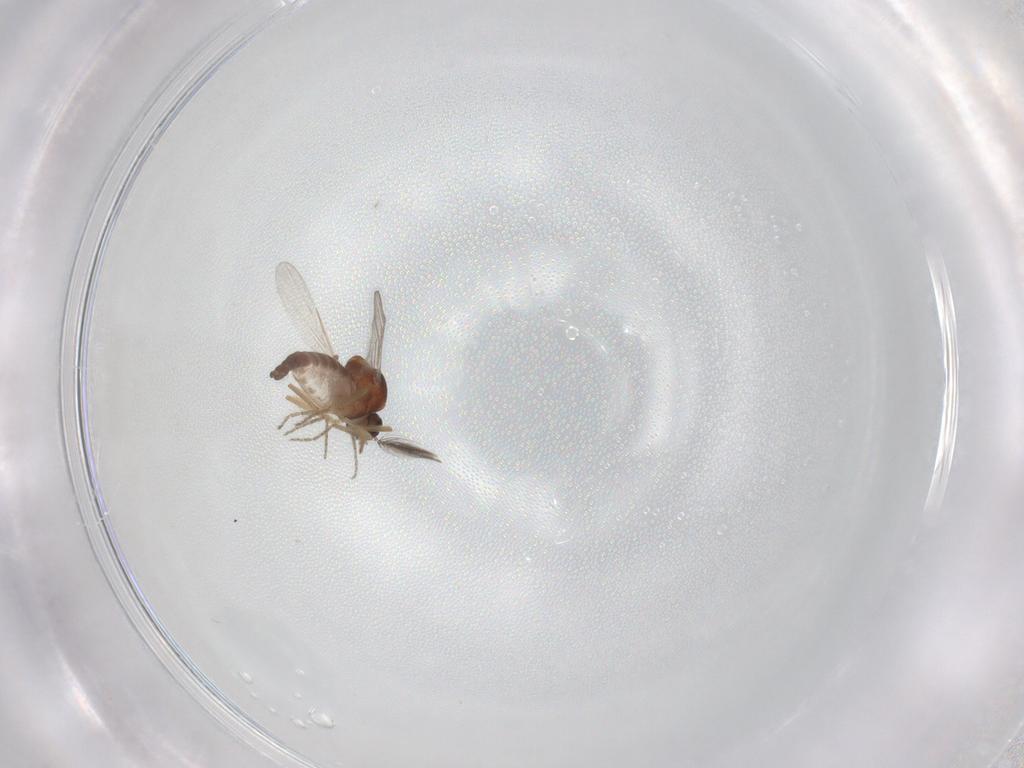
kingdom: Animalia
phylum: Arthropoda
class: Insecta
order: Diptera
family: Ceratopogonidae
